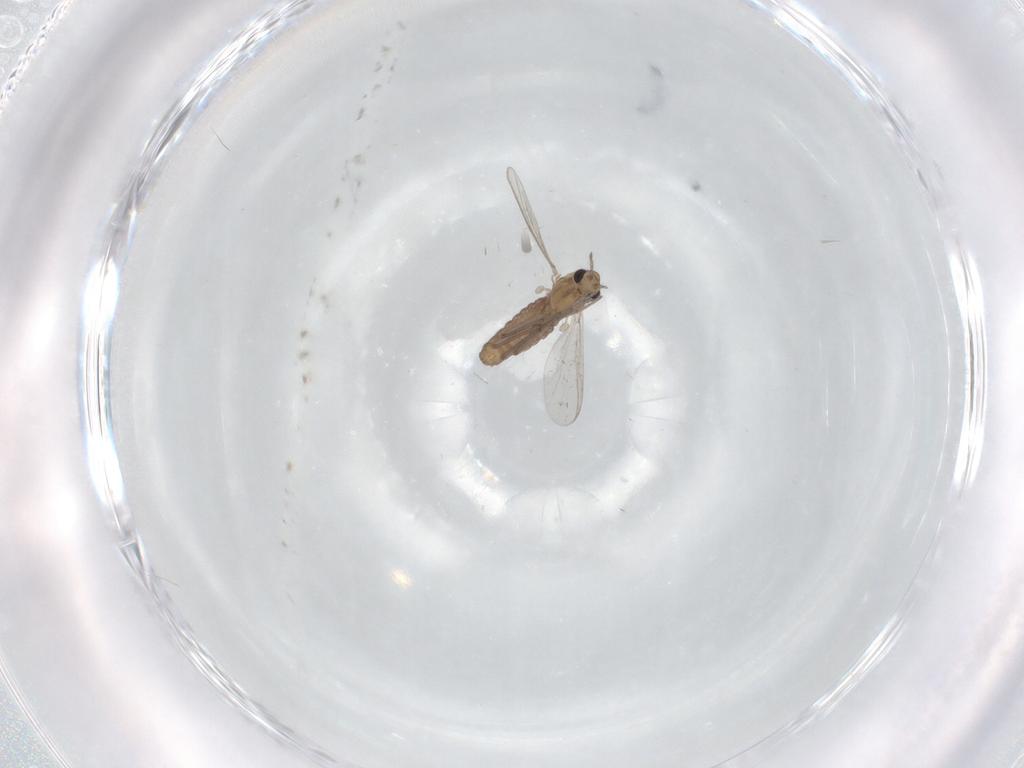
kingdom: Animalia
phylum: Arthropoda
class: Insecta
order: Diptera
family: Chironomidae
